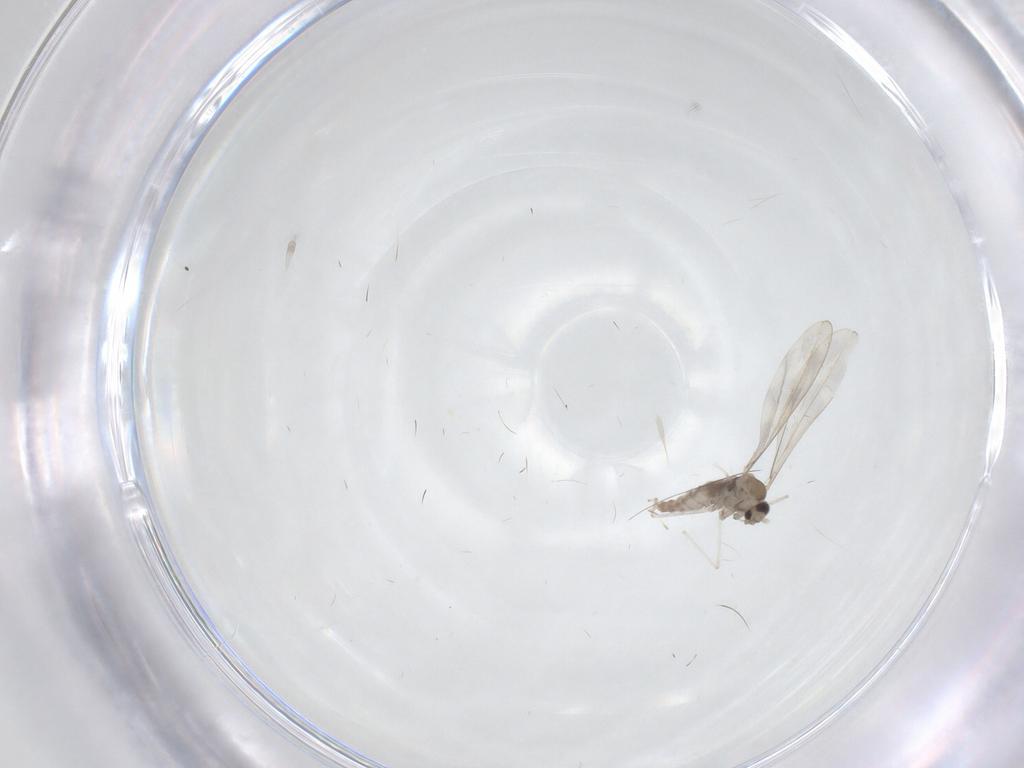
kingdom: Animalia
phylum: Arthropoda
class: Insecta
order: Diptera
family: Cecidomyiidae
